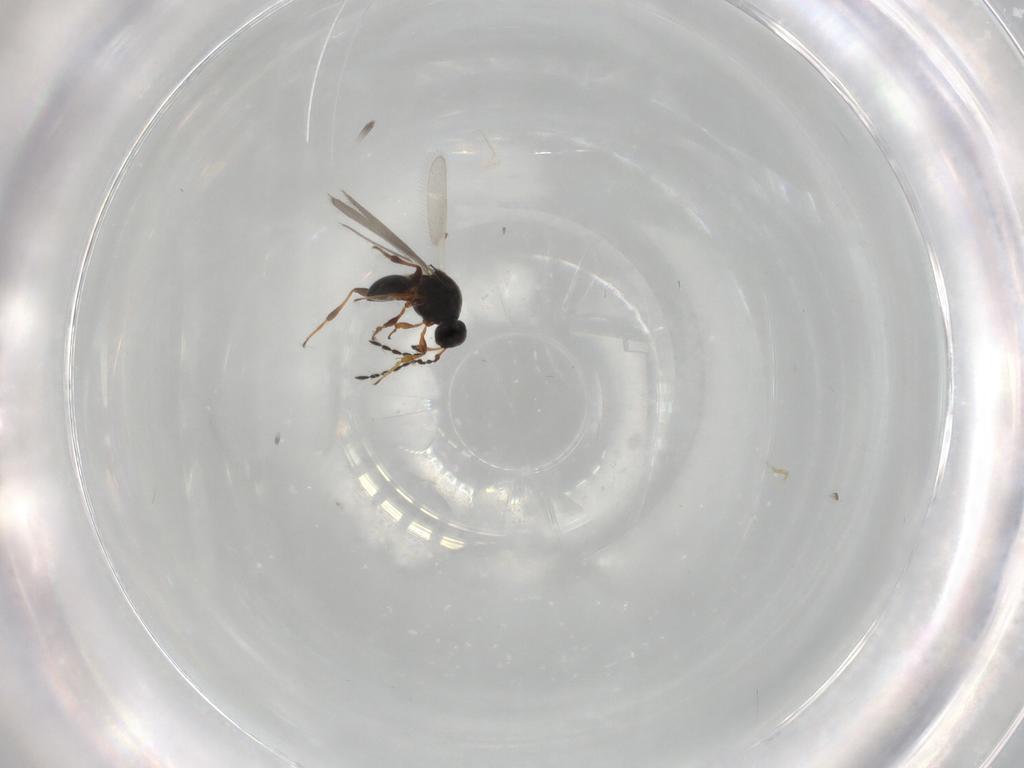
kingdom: Animalia
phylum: Arthropoda
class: Insecta
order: Hymenoptera
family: Platygastridae
